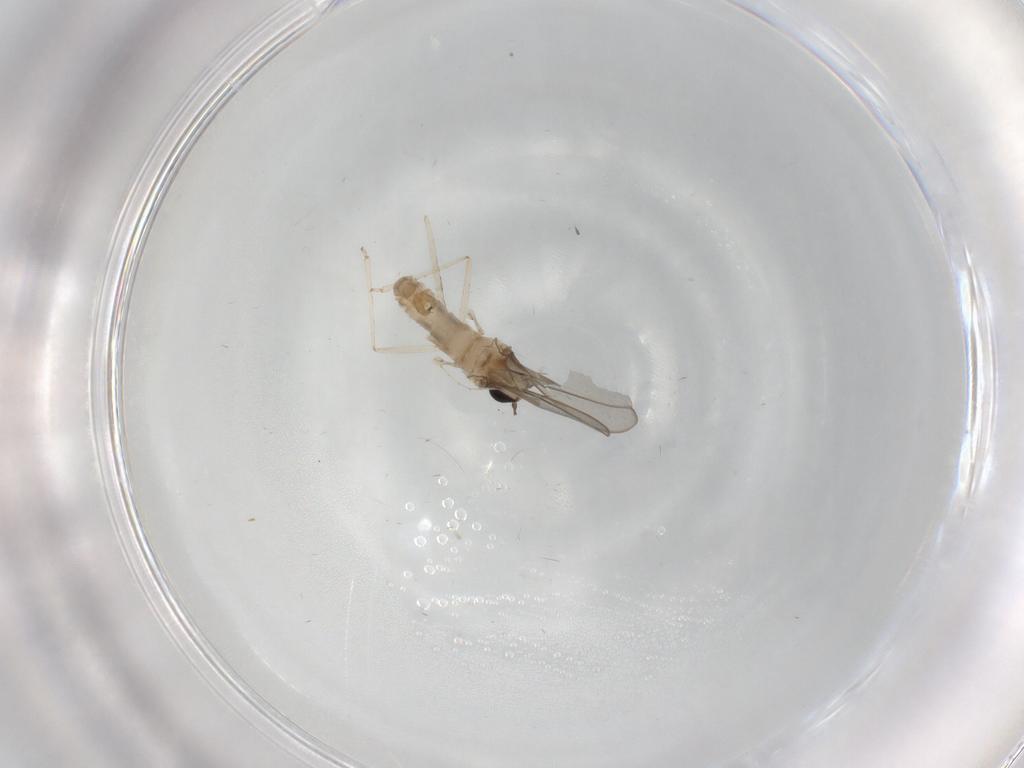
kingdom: Animalia
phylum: Arthropoda
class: Insecta
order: Diptera
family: Cecidomyiidae
